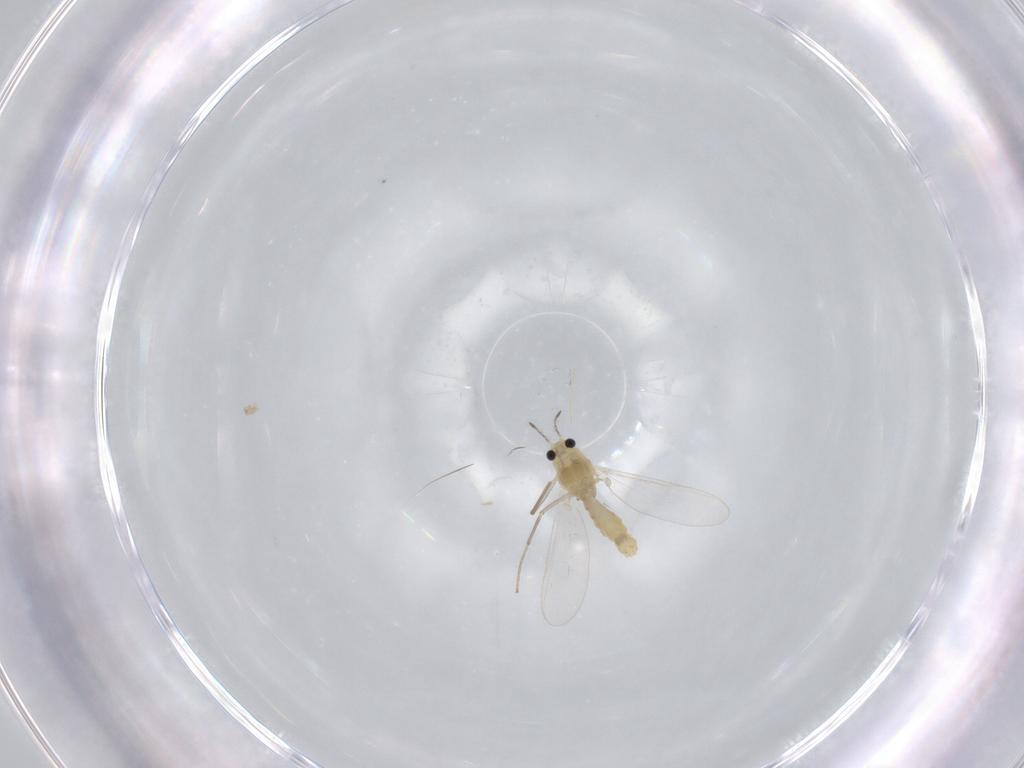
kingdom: Animalia
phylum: Arthropoda
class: Insecta
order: Diptera
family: Chironomidae
